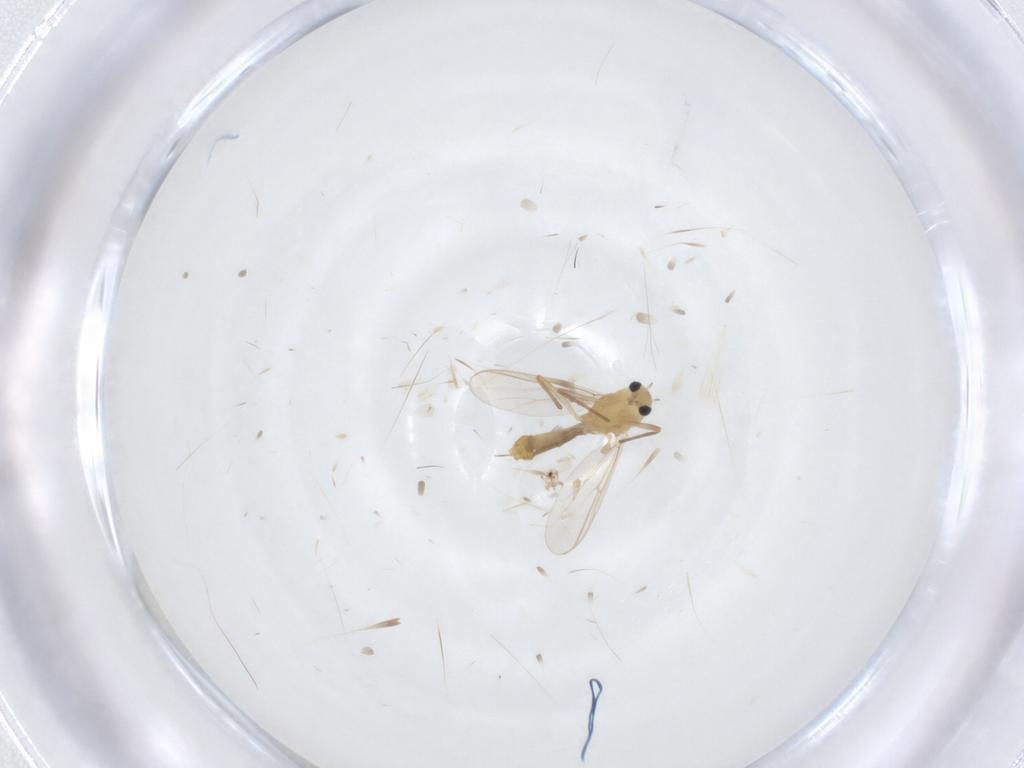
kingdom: Animalia
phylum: Arthropoda
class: Insecta
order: Diptera
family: Chironomidae
